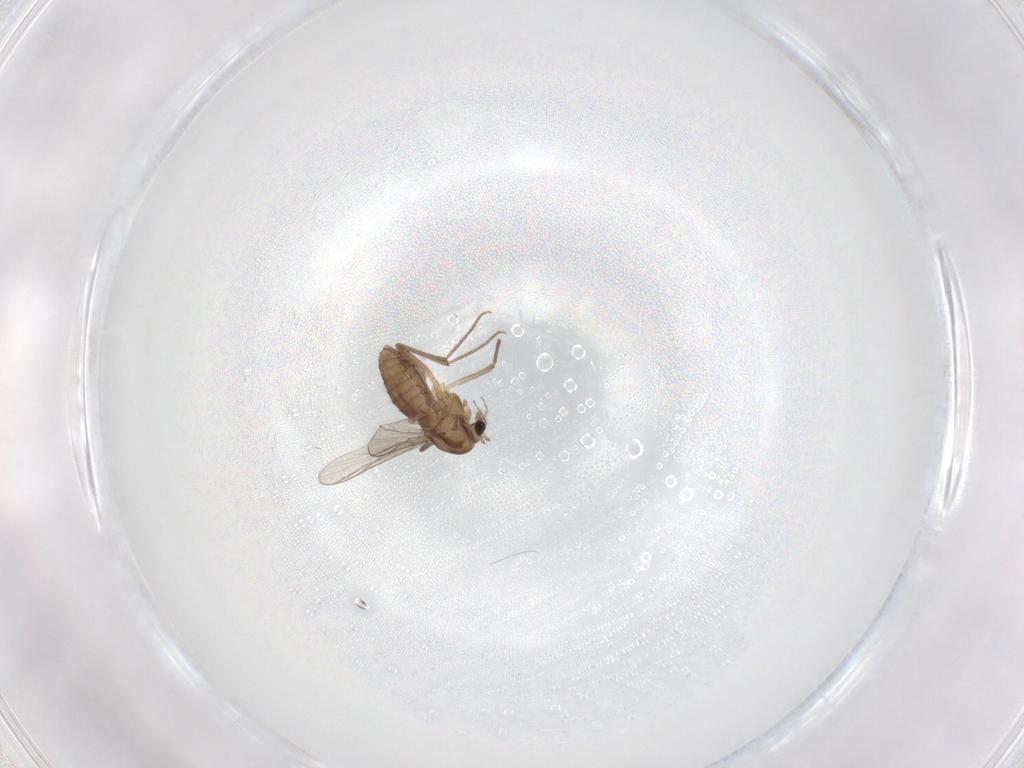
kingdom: Animalia
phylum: Arthropoda
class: Insecta
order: Diptera
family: Chironomidae
